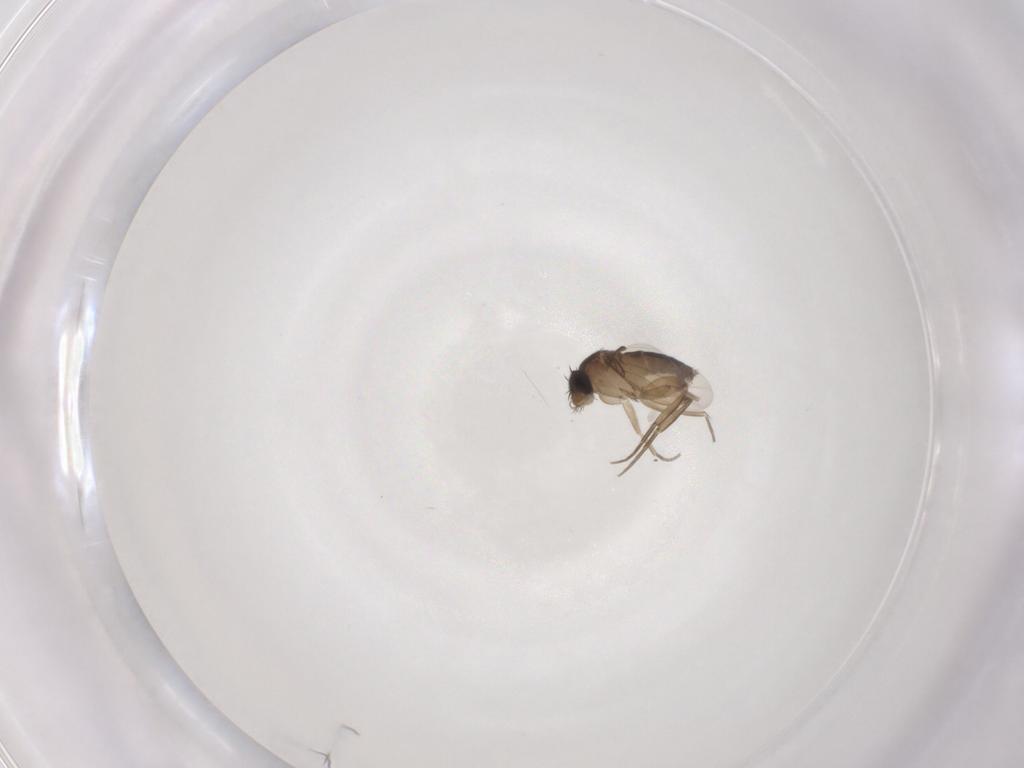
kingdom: Animalia
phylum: Arthropoda
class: Insecta
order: Diptera
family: Phoridae
